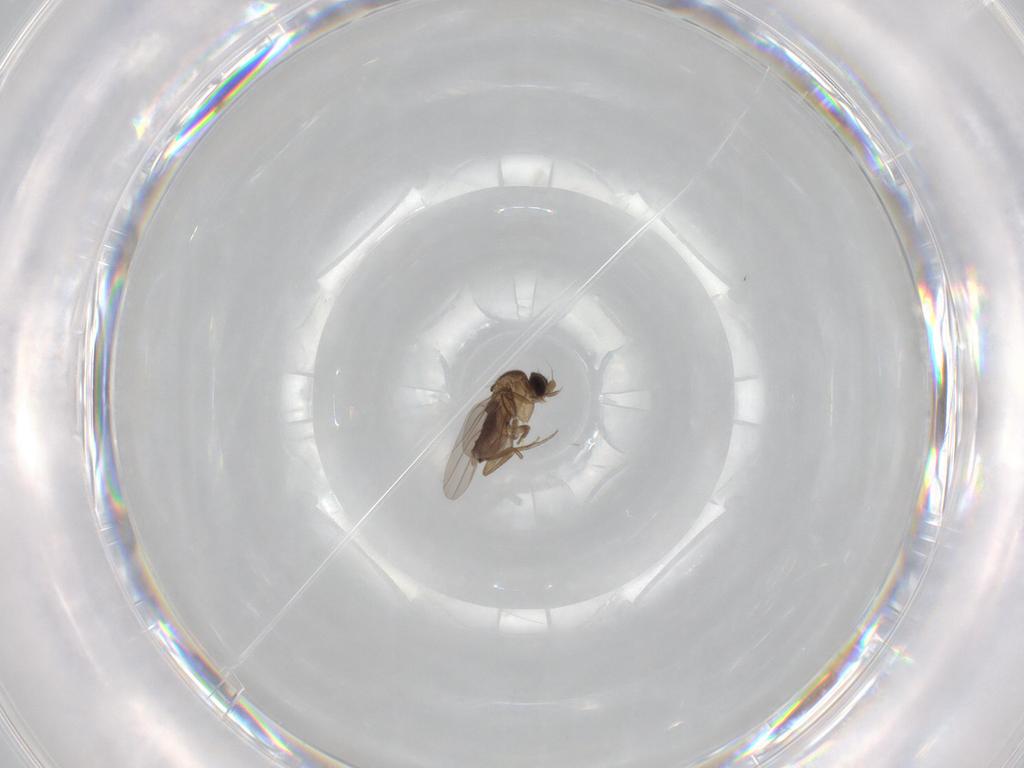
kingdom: Animalia
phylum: Arthropoda
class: Insecta
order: Diptera
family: Phoridae
